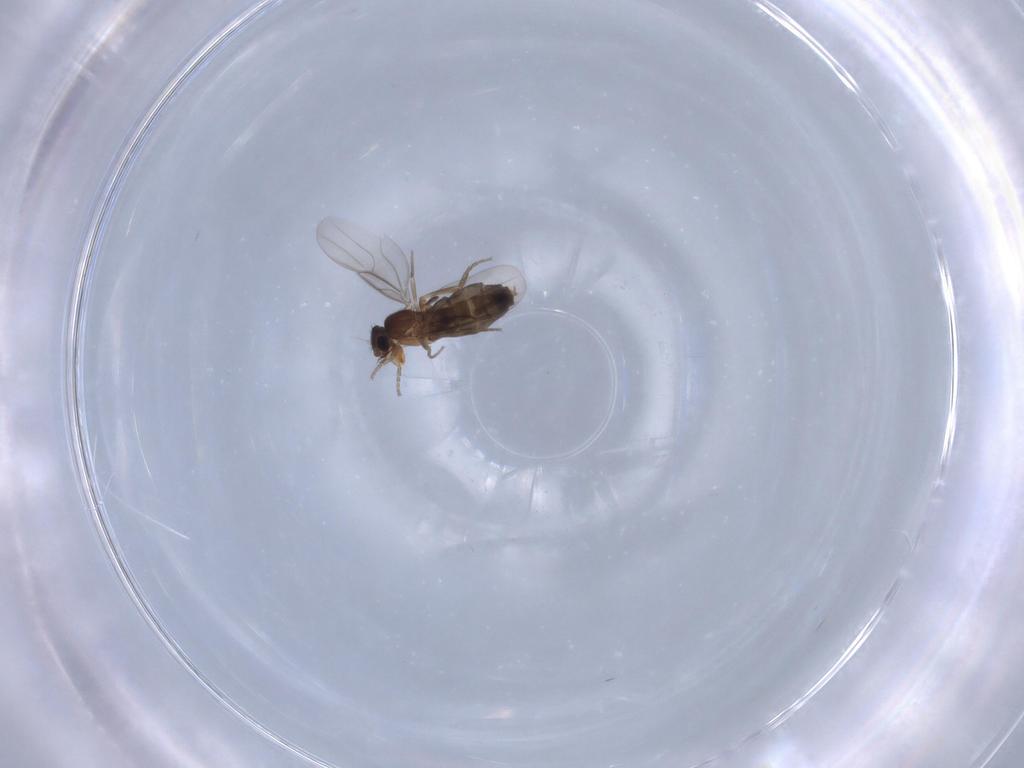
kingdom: Animalia
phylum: Arthropoda
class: Insecta
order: Diptera
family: Phoridae
